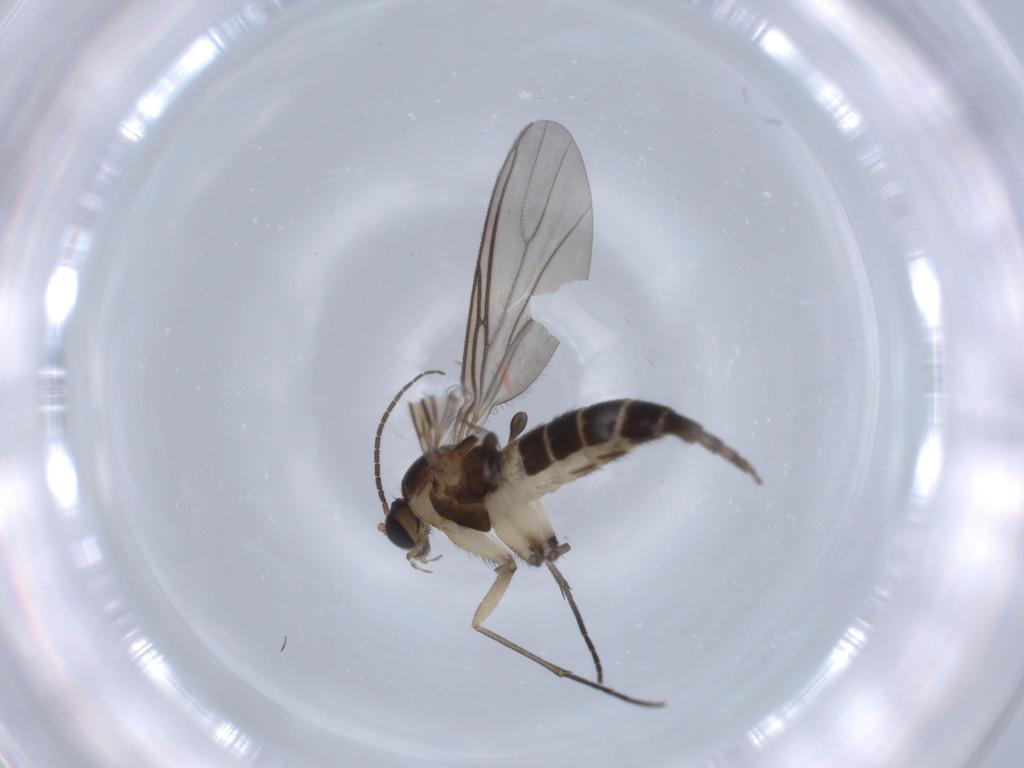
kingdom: Animalia
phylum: Arthropoda
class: Insecta
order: Diptera
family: Sciaridae
